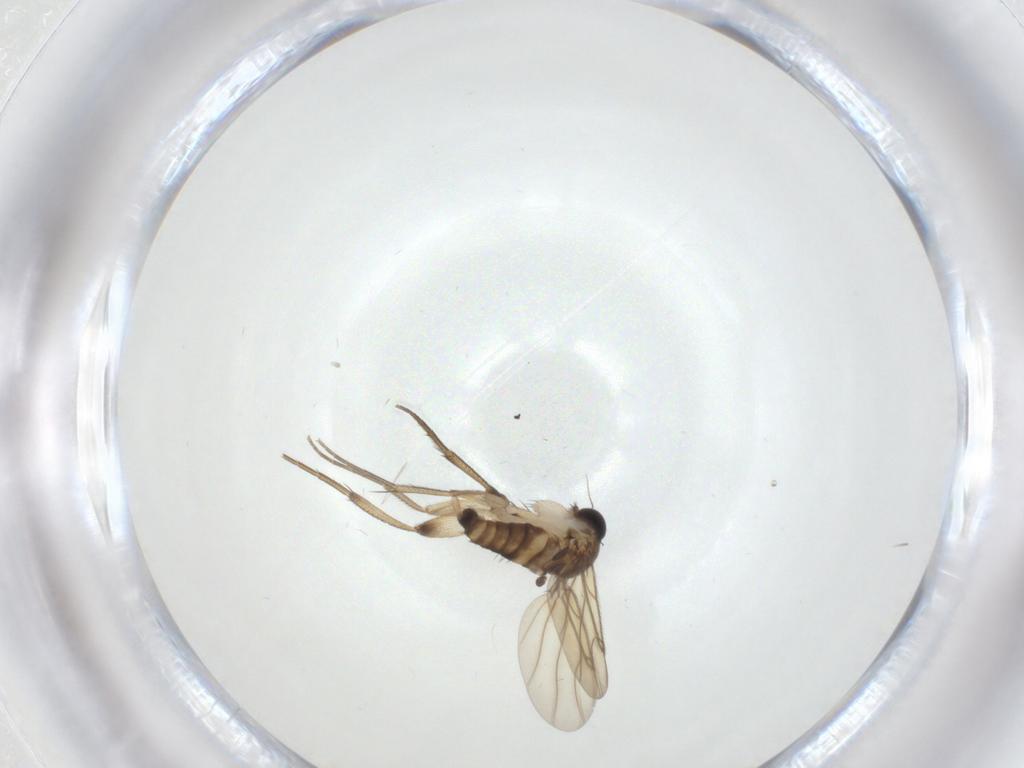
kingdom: Animalia
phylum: Arthropoda
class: Insecta
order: Diptera
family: Phoridae
